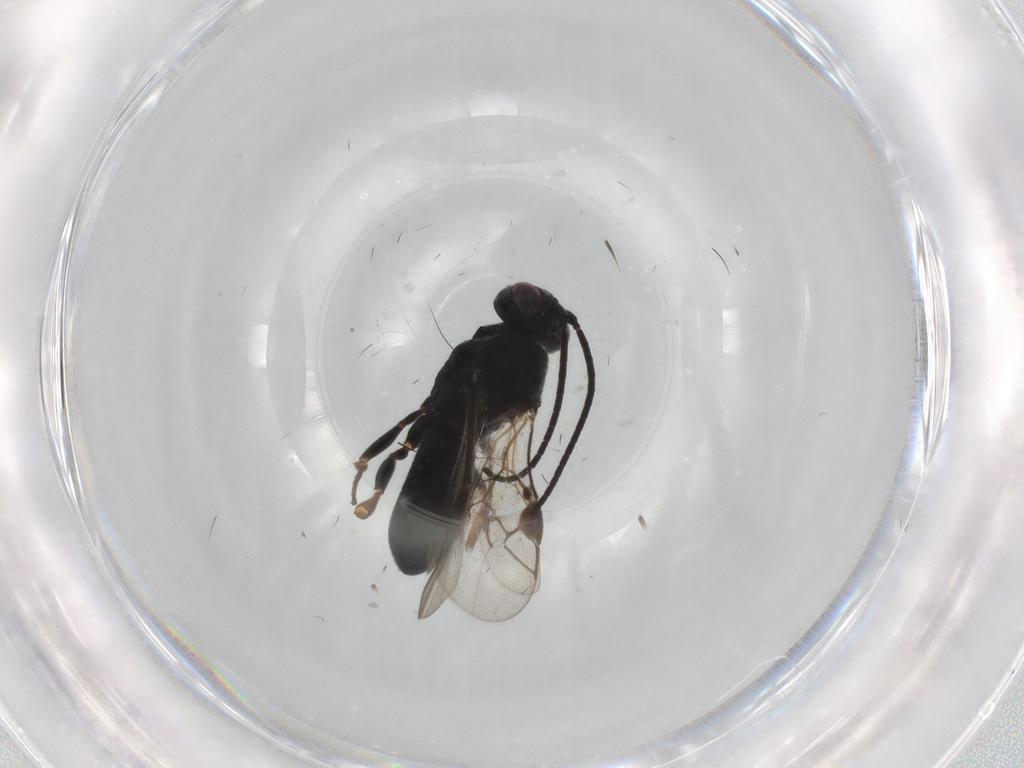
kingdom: Animalia
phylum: Arthropoda
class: Insecta
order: Hymenoptera
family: Braconidae
